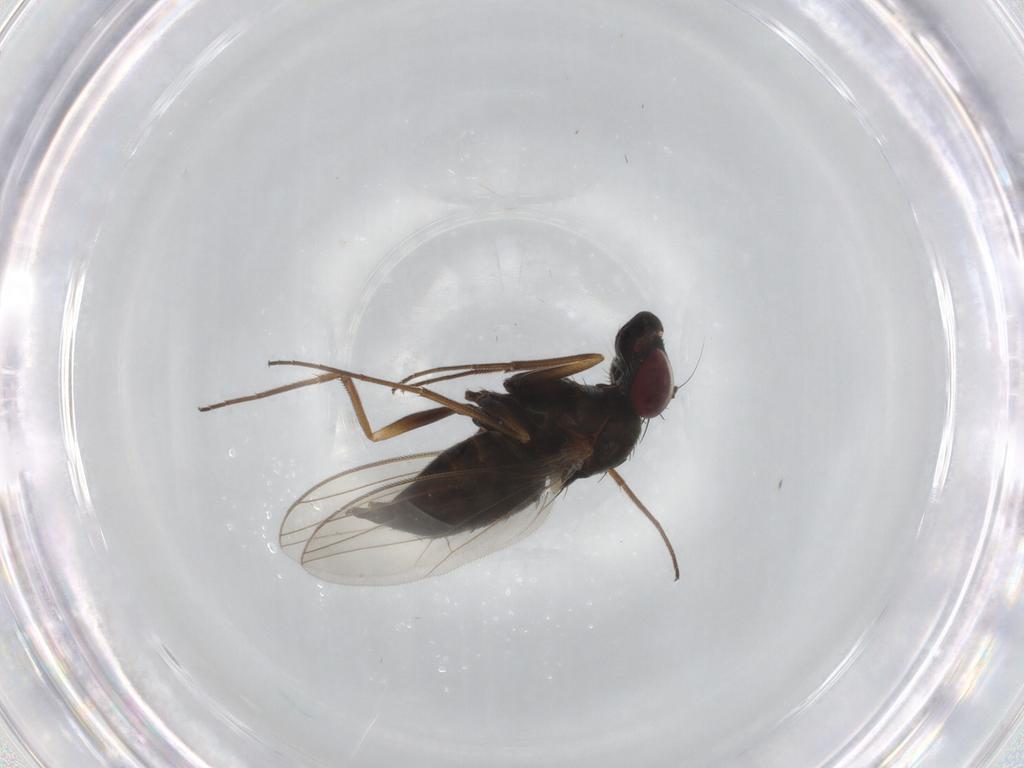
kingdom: Animalia
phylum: Arthropoda
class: Insecta
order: Diptera
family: Dolichopodidae
